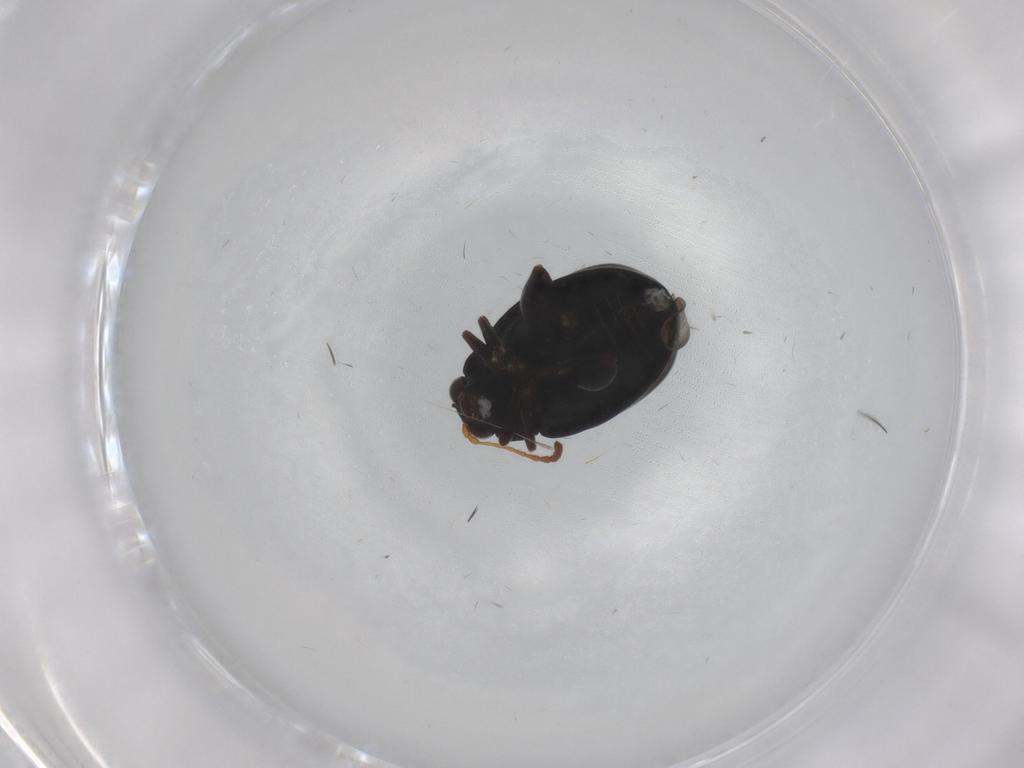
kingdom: Animalia
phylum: Arthropoda
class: Insecta
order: Coleoptera
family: Chrysomelidae
